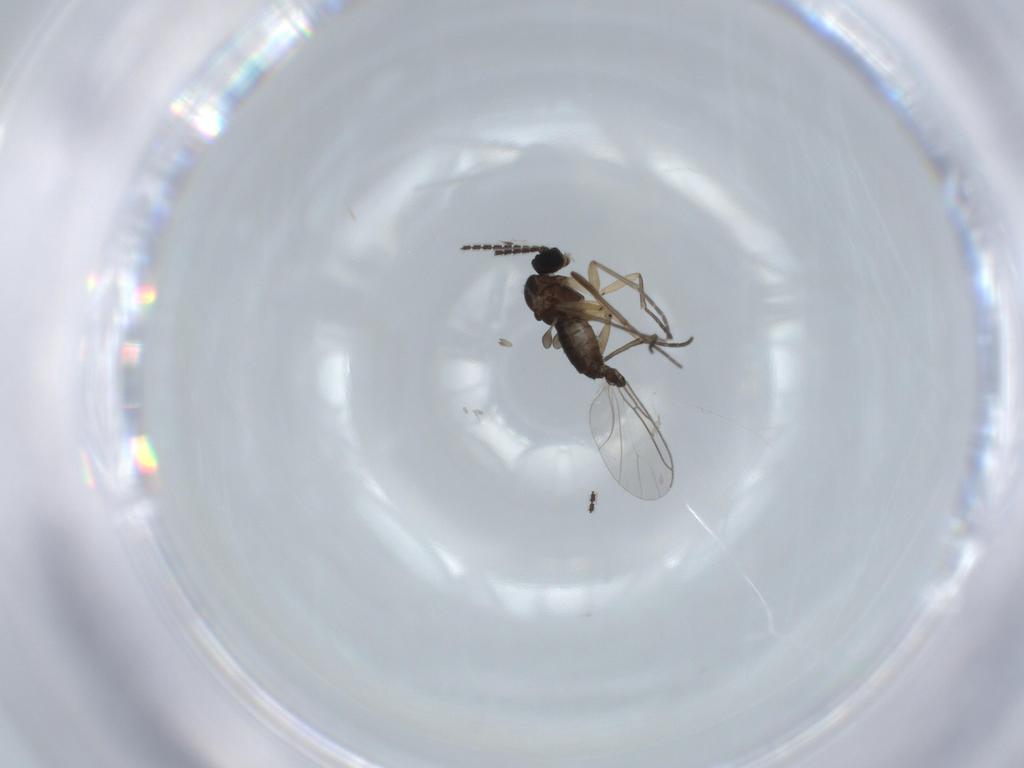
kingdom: Animalia
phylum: Arthropoda
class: Insecta
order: Diptera
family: Sciaridae
